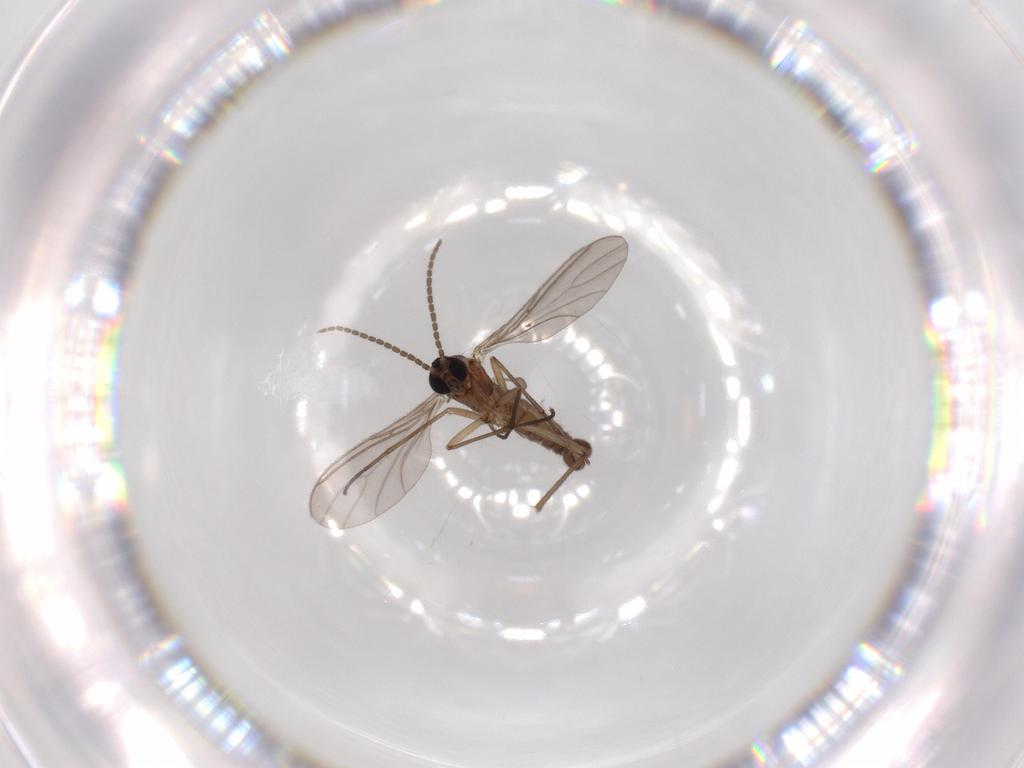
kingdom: Animalia
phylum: Arthropoda
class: Insecta
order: Diptera
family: Sciaridae
